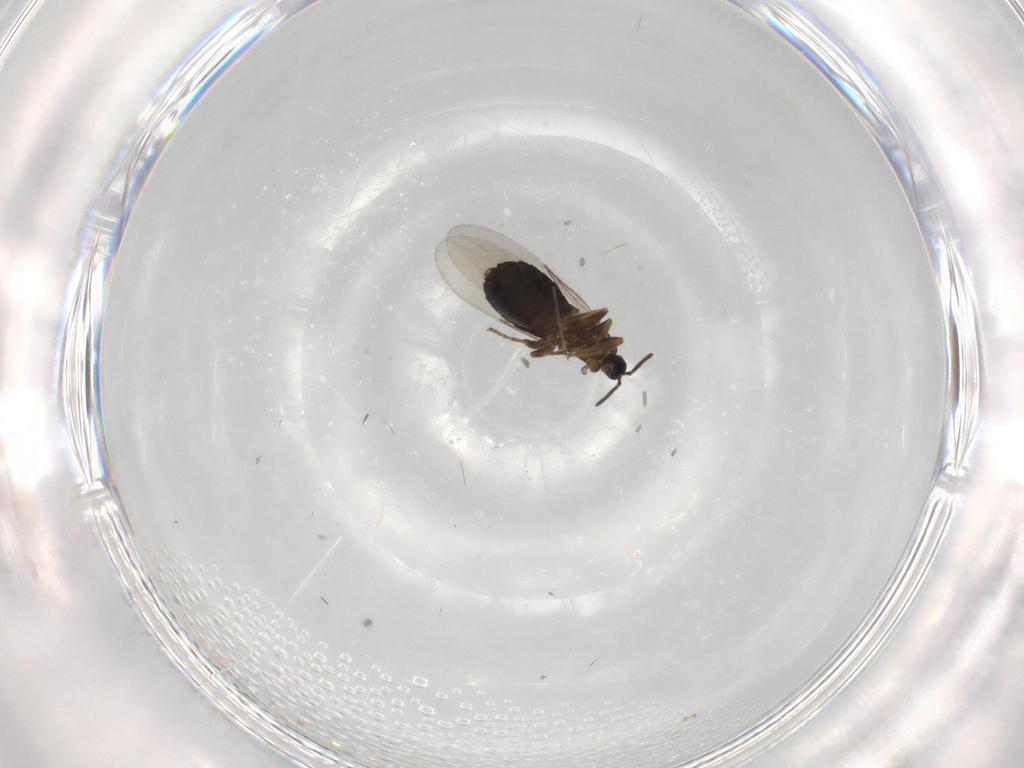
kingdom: Animalia
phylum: Arthropoda
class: Insecta
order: Diptera
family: Scatopsidae
